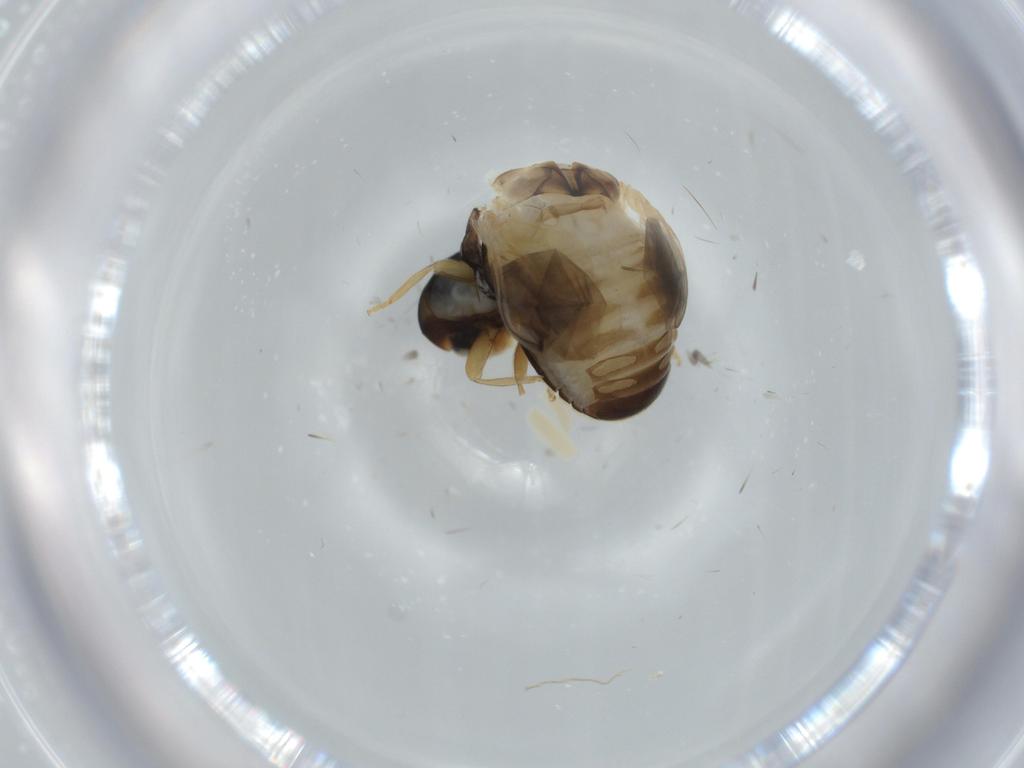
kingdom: Animalia
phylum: Arthropoda
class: Insecta
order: Coleoptera
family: Coccinellidae
